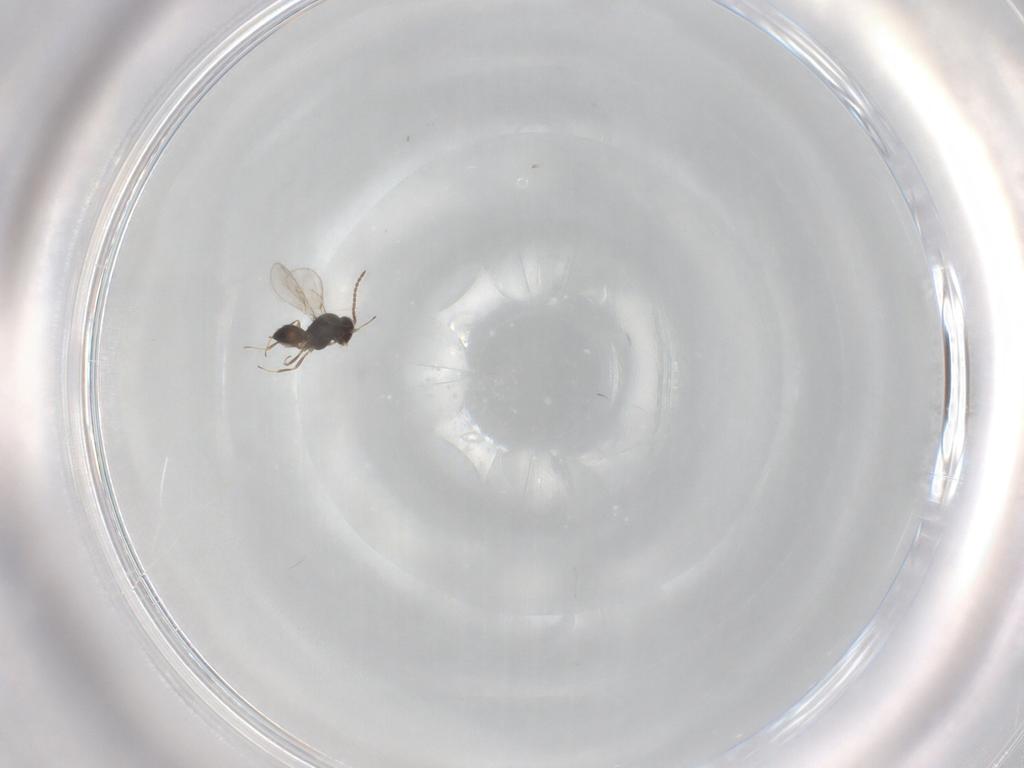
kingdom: Animalia
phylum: Arthropoda
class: Insecta
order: Hymenoptera
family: Scelionidae
